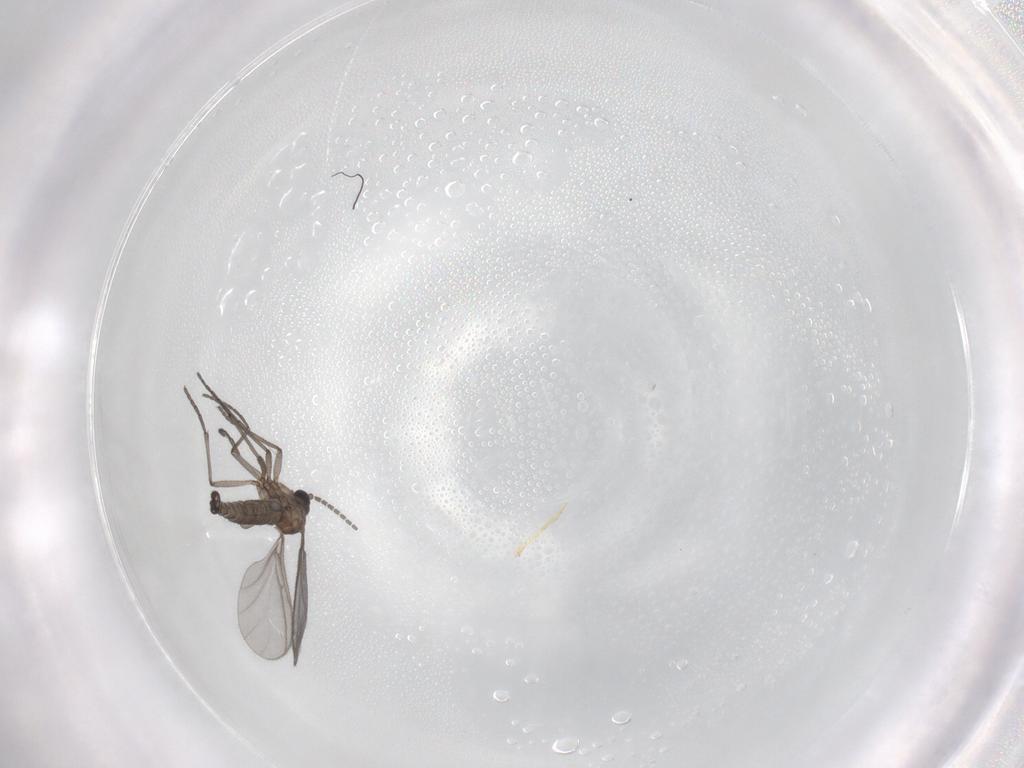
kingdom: Animalia
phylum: Arthropoda
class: Insecta
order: Diptera
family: Sciaridae
